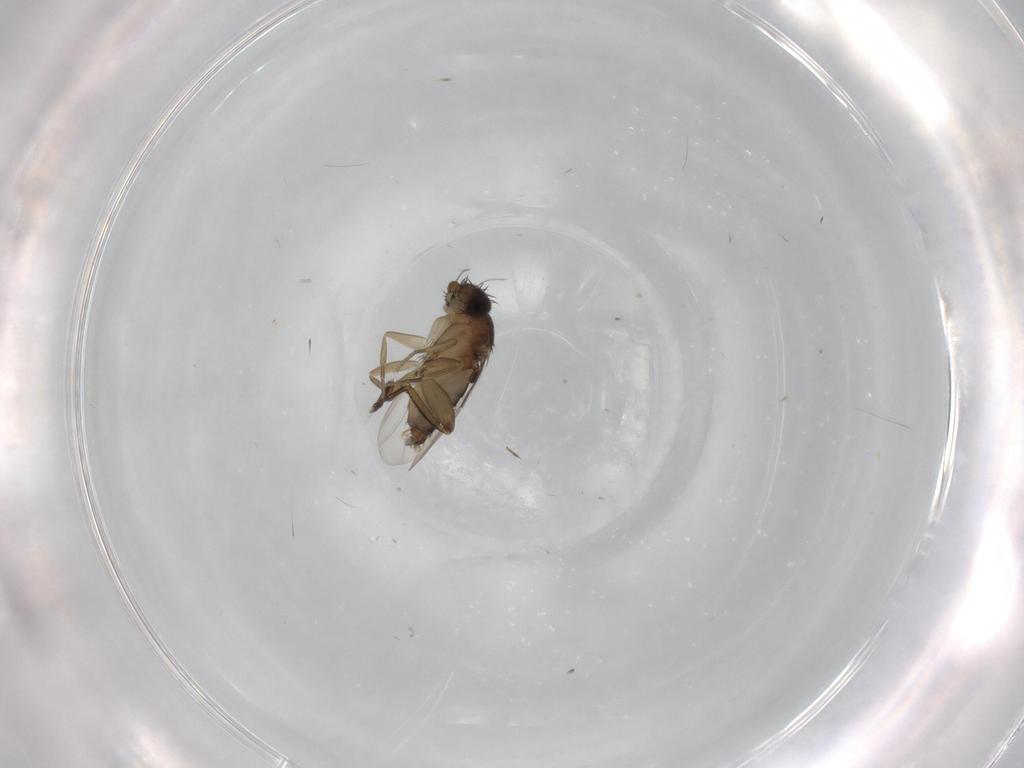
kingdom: Animalia
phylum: Arthropoda
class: Insecta
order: Diptera
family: Phoridae
